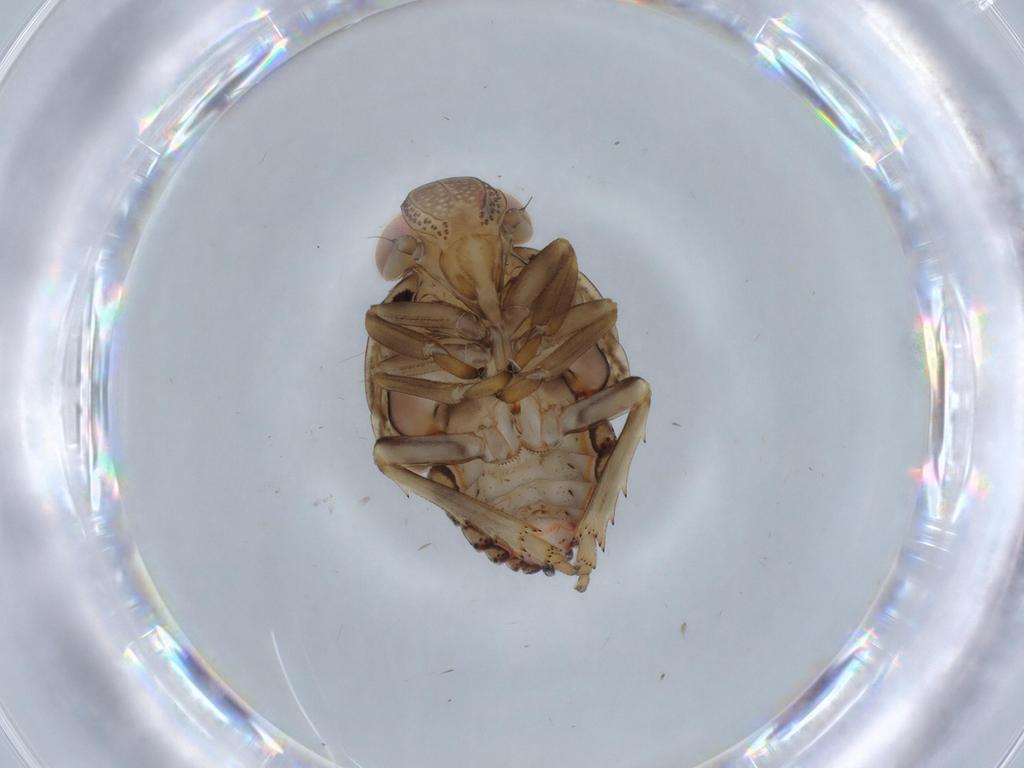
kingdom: Animalia
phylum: Arthropoda
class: Insecta
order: Hemiptera
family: Issidae
